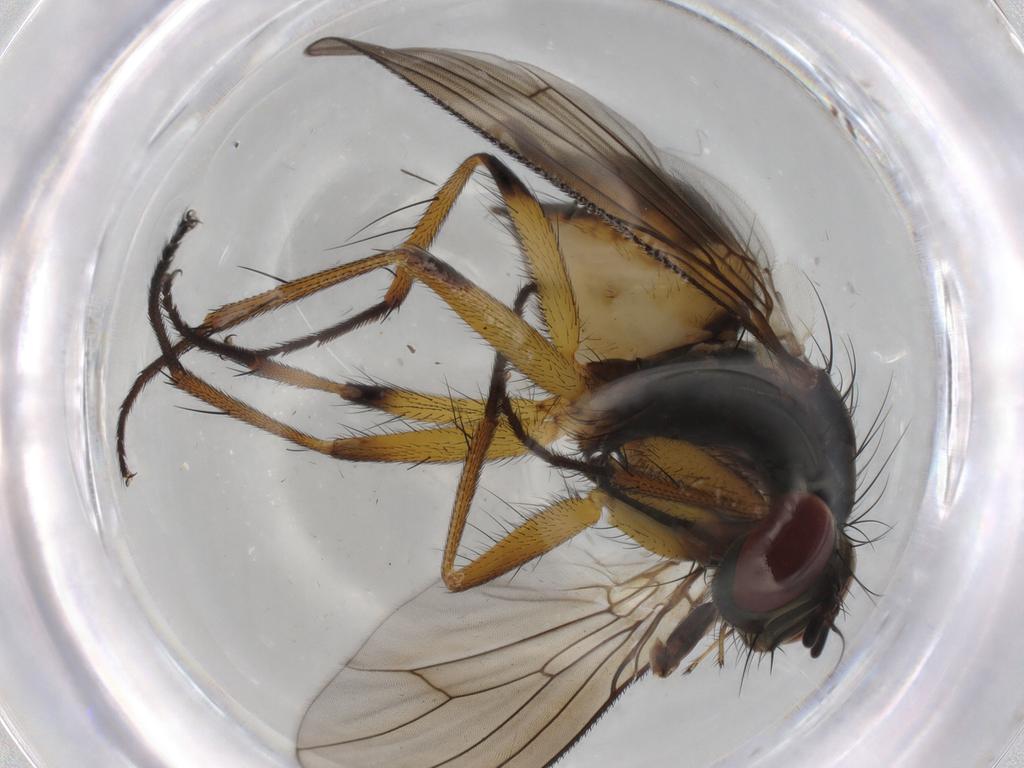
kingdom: Animalia
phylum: Arthropoda
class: Insecta
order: Diptera
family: Muscidae
